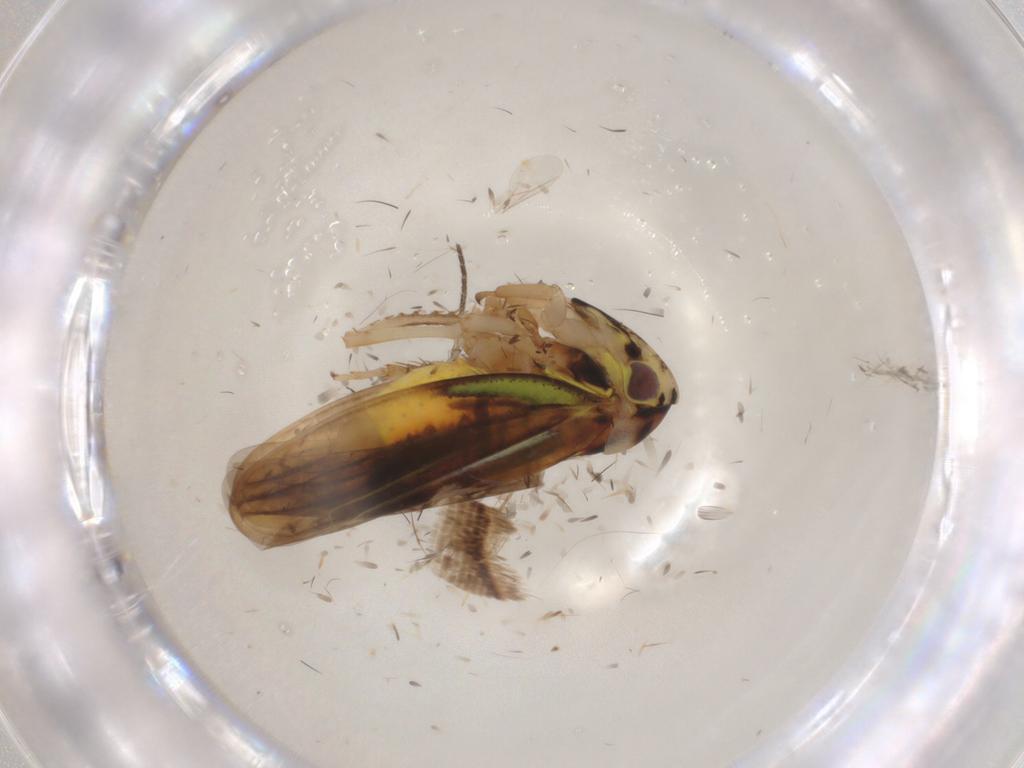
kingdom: Animalia
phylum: Arthropoda
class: Insecta
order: Hemiptera
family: Cicadellidae
